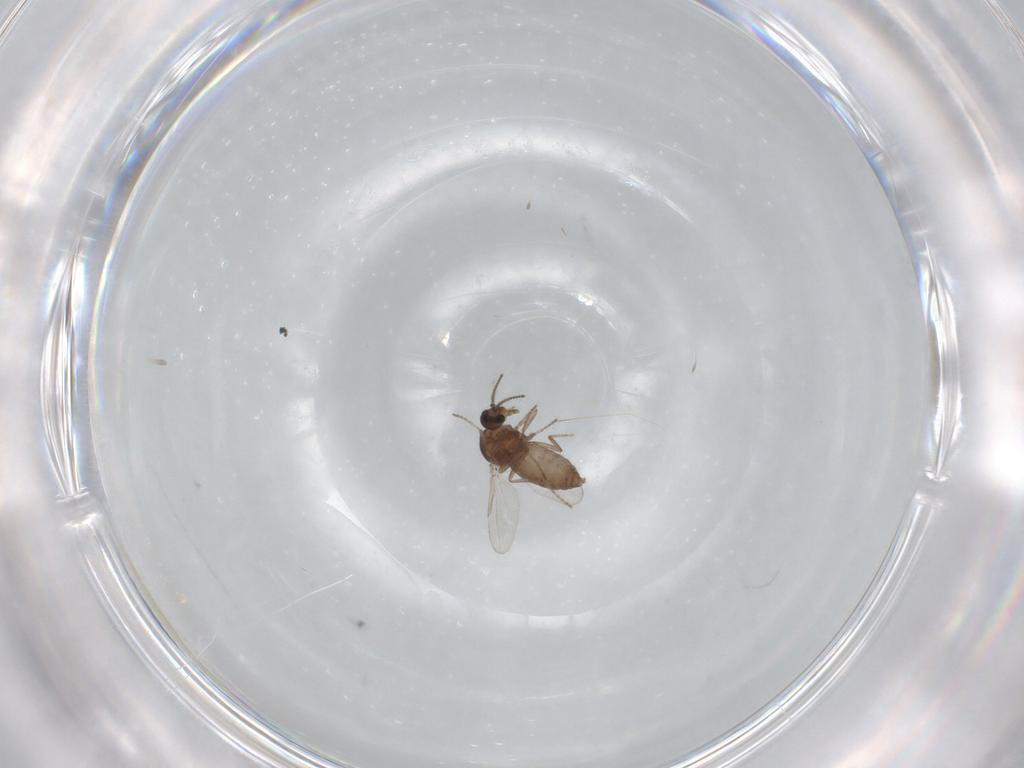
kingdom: Animalia
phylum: Arthropoda
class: Insecta
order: Diptera
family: Ceratopogonidae
